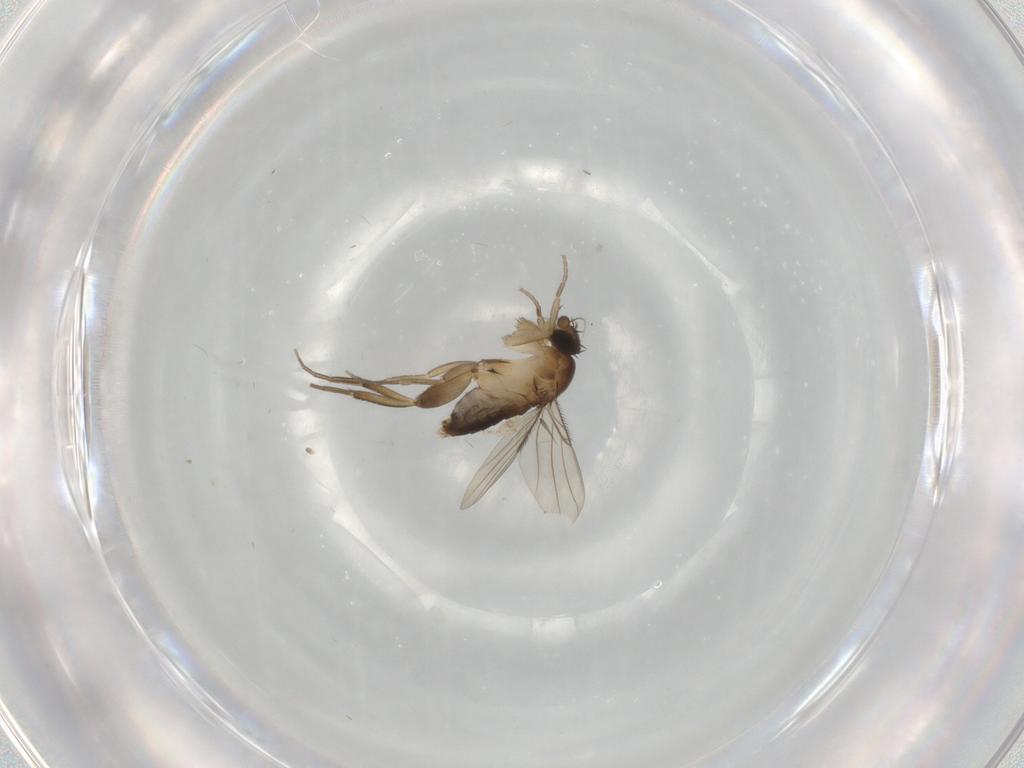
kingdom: Animalia
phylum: Arthropoda
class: Insecta
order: Diptera
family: Phoridae
